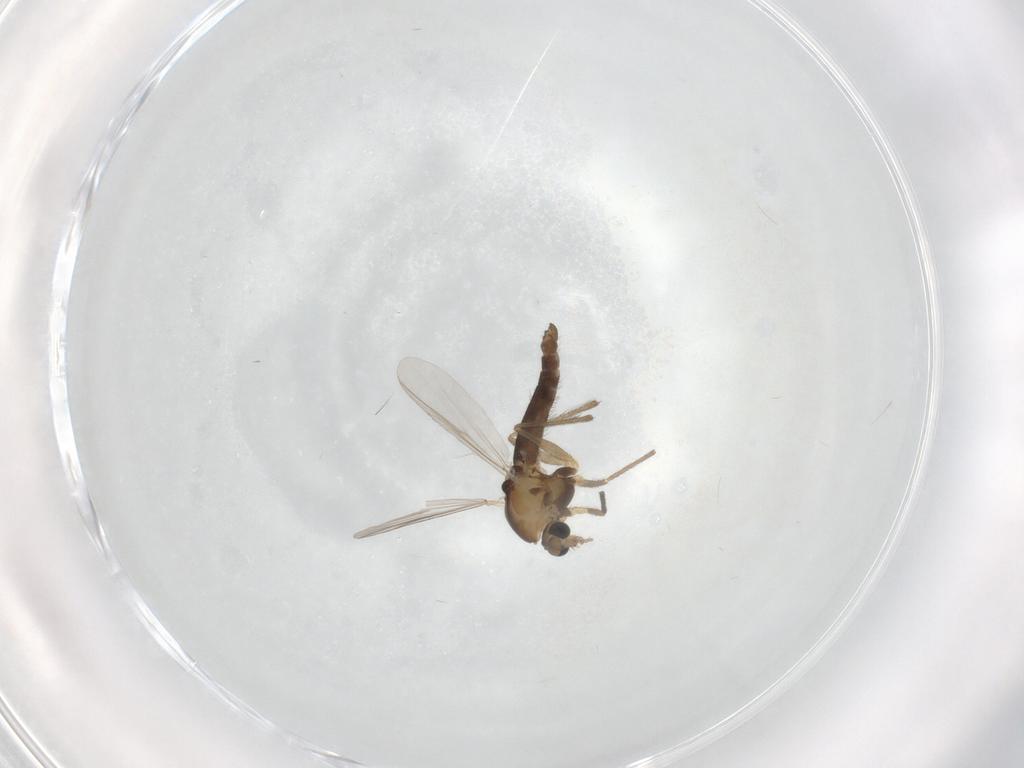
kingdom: Animalia
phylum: Arthropoda
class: Insecta
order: Diptera
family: Chironomidae
